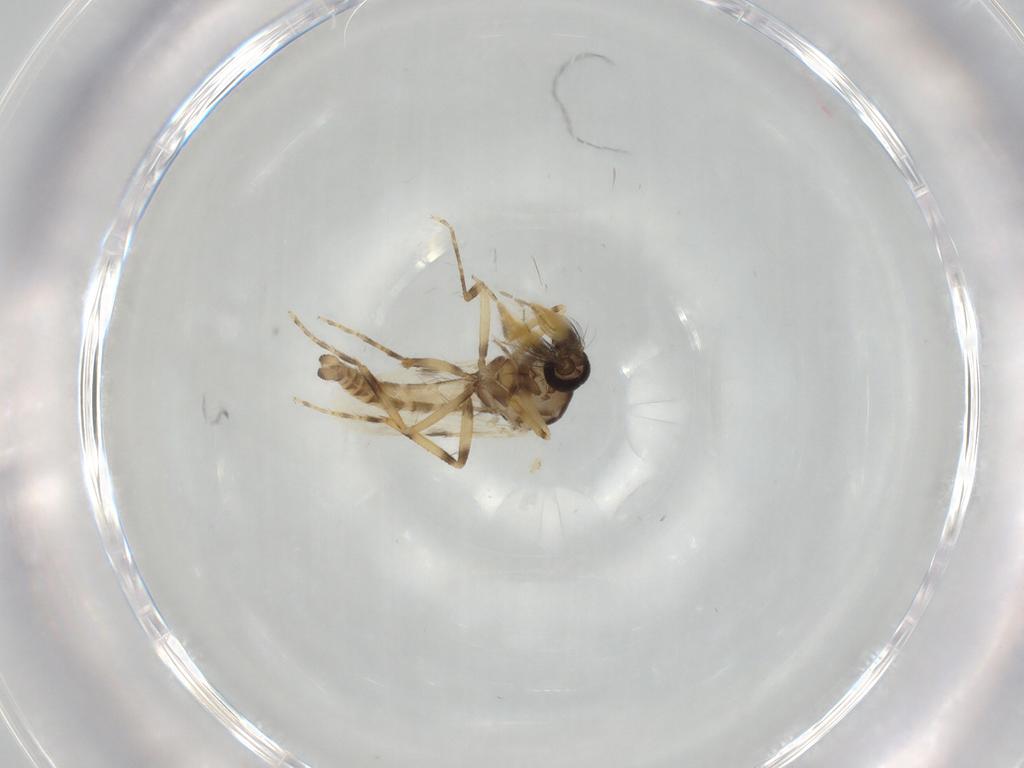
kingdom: Animalia
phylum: Arthropoda
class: Insecta
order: Diptera
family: Ceratopogonidae
